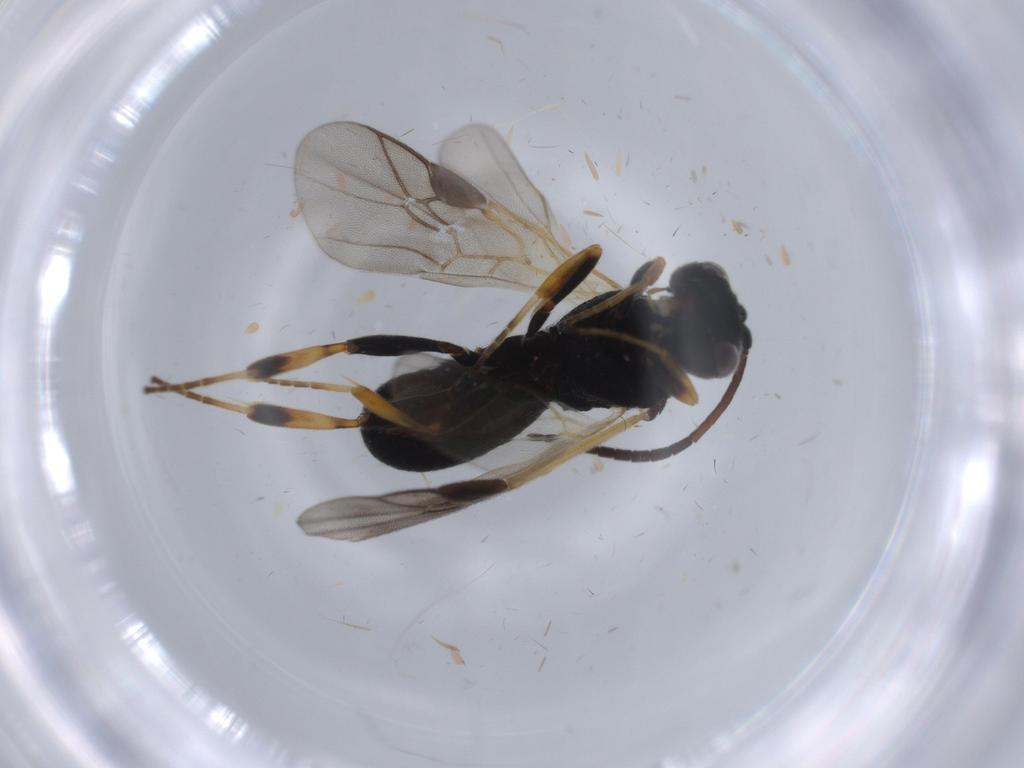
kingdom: Animalia
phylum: Arthropoda
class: Insecta
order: Hymenoptera
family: Braconidae
